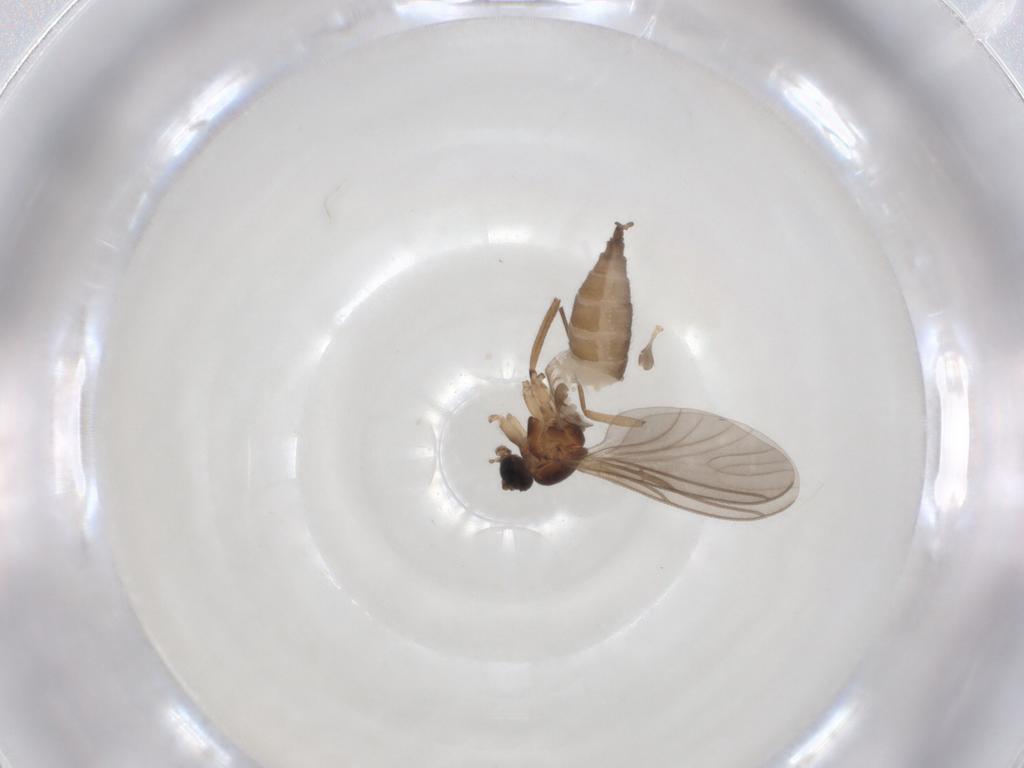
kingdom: Animalia
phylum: Arthropoda
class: Insecta
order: Diptera
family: Sciaridae
